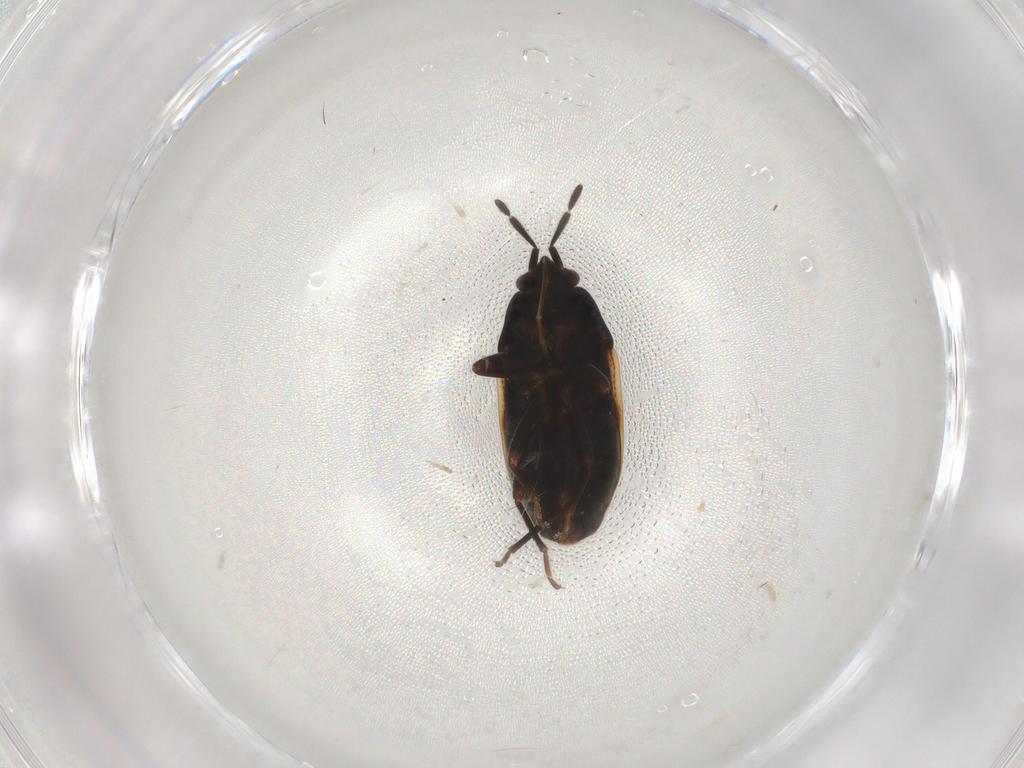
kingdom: Animalia
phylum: Arthropoda
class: Insecta
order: Hemiptera
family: Rhyparochromidae
